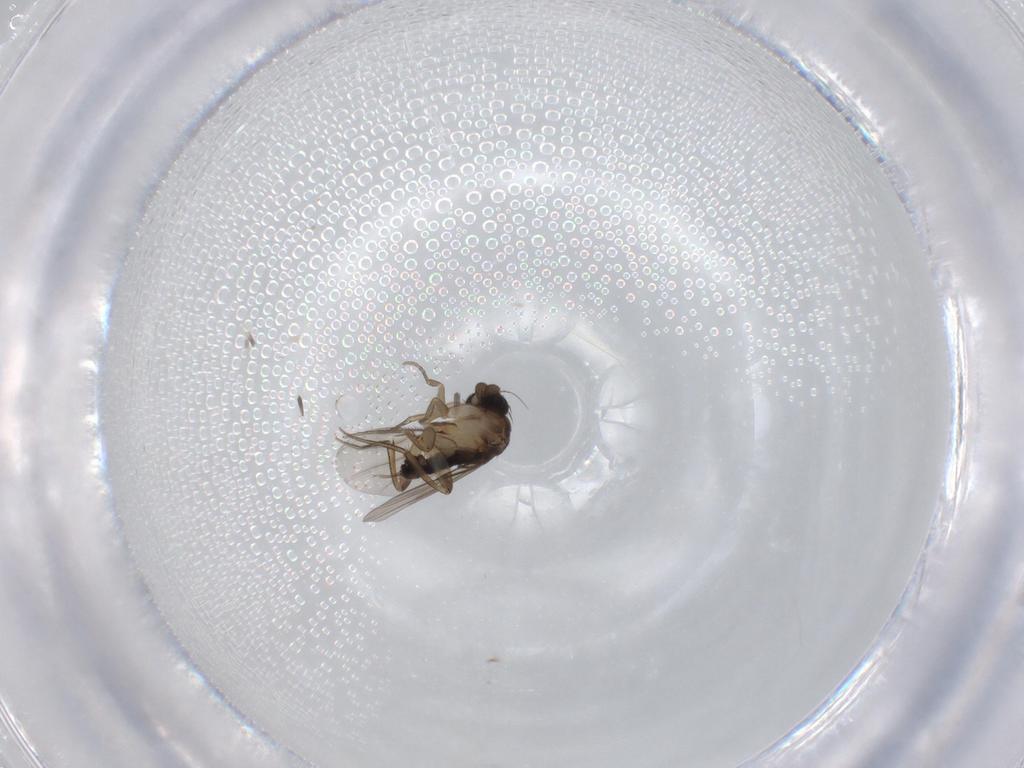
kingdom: Animalia
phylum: Arthropoda
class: Insecta
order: Diptera
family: Phoridae
